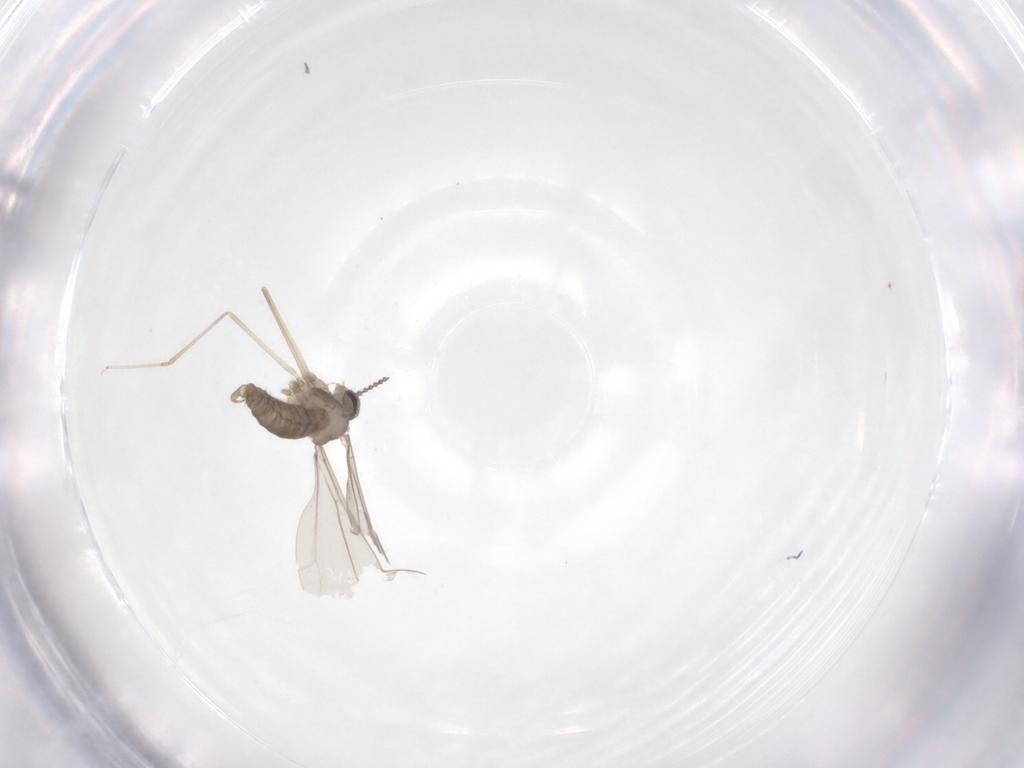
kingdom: Animalia
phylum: Arthropoda
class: Insecta
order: Diptera
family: Cecidomyiidae
